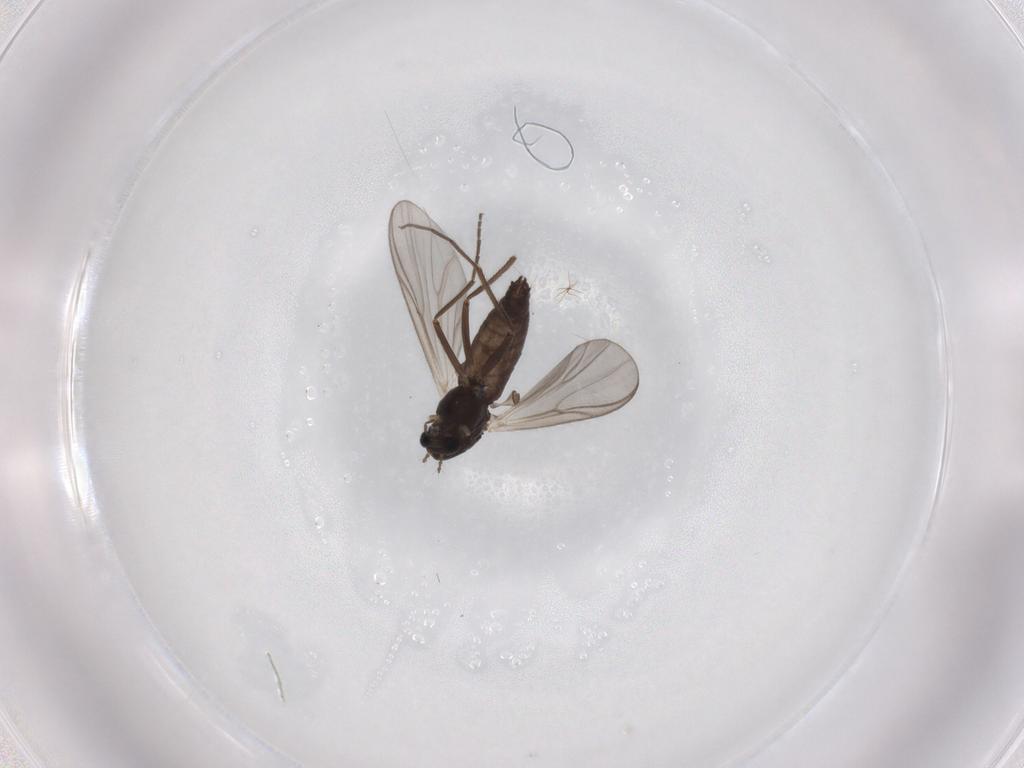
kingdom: Animalia
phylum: Arthropoda
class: Insecta
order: Diptera
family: Chironomidae
